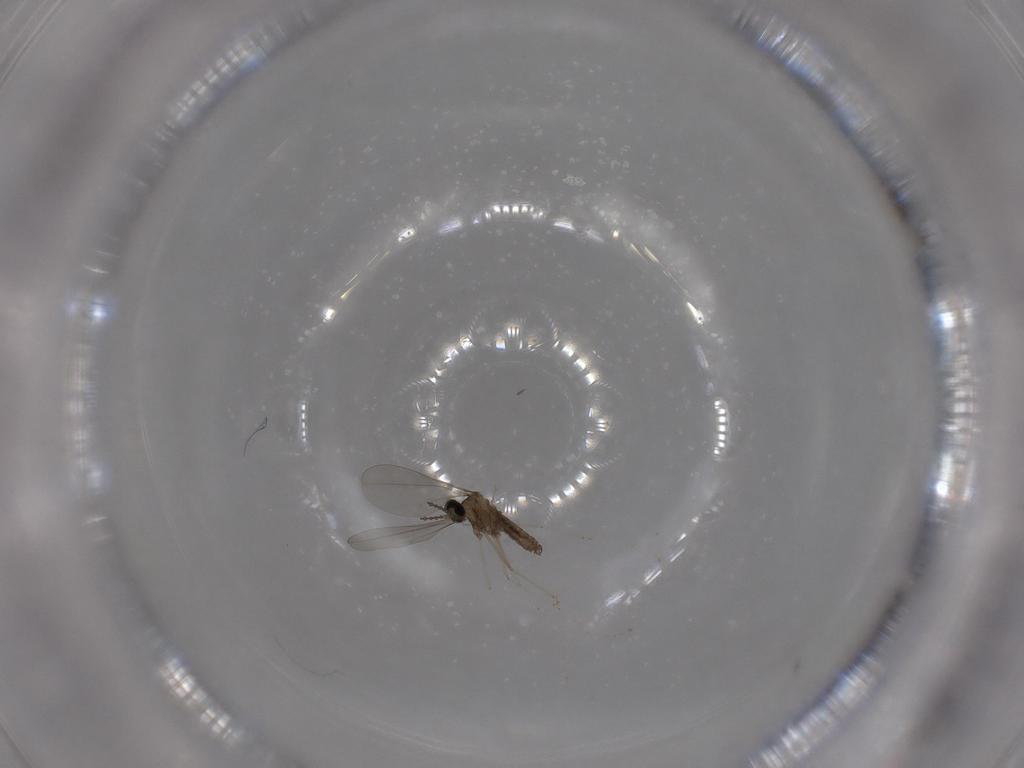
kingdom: Animalia
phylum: Arthropoda
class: Insecta
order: Diptera
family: Cecidomyiidae
